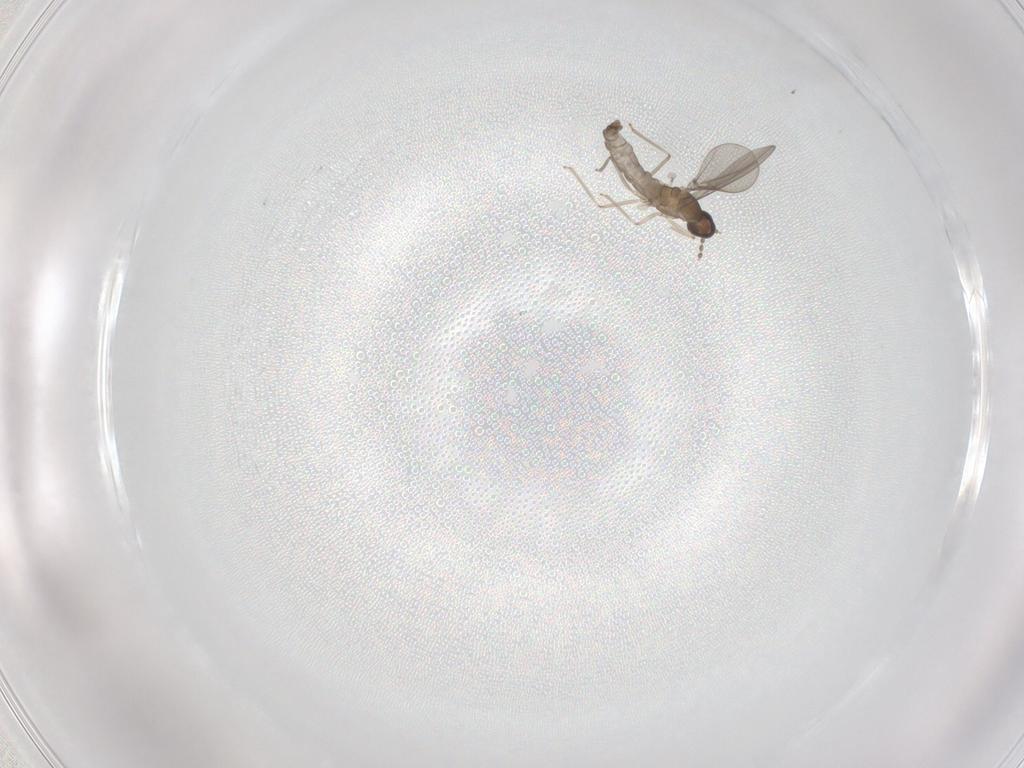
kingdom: Animalia
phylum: Arthropoda
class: Insecta
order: Diptera
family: Cecidomyiidae
